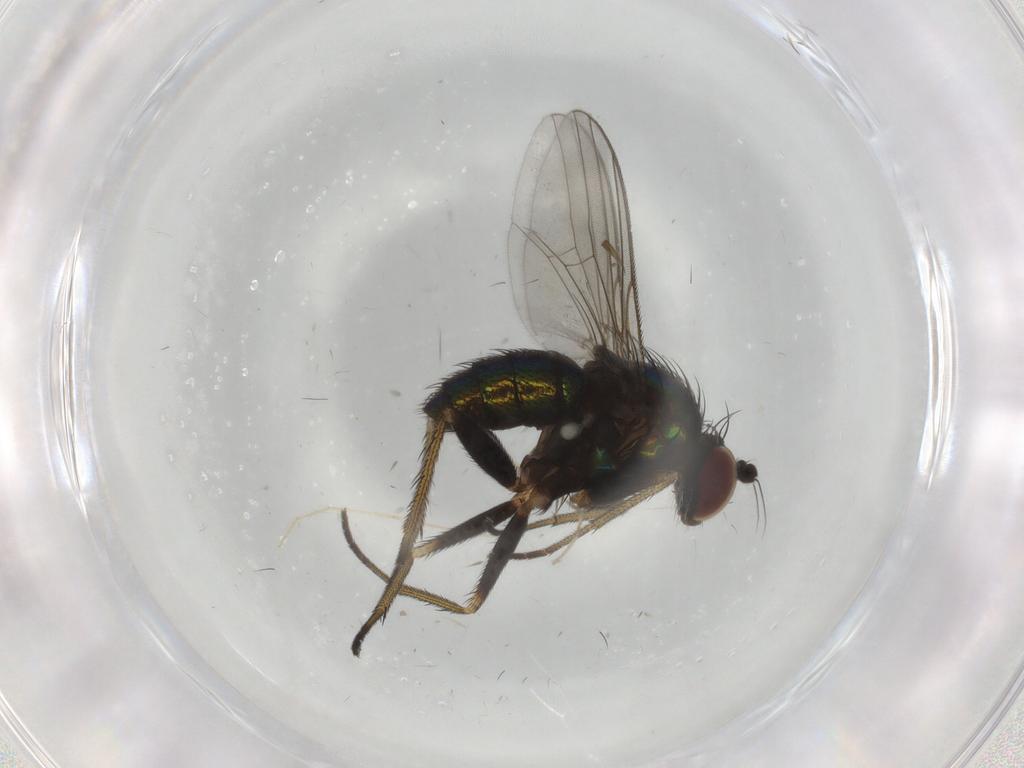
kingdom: Animalia
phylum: Arthropoda
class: Insecta
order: Diptera
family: Dolichopodidae
